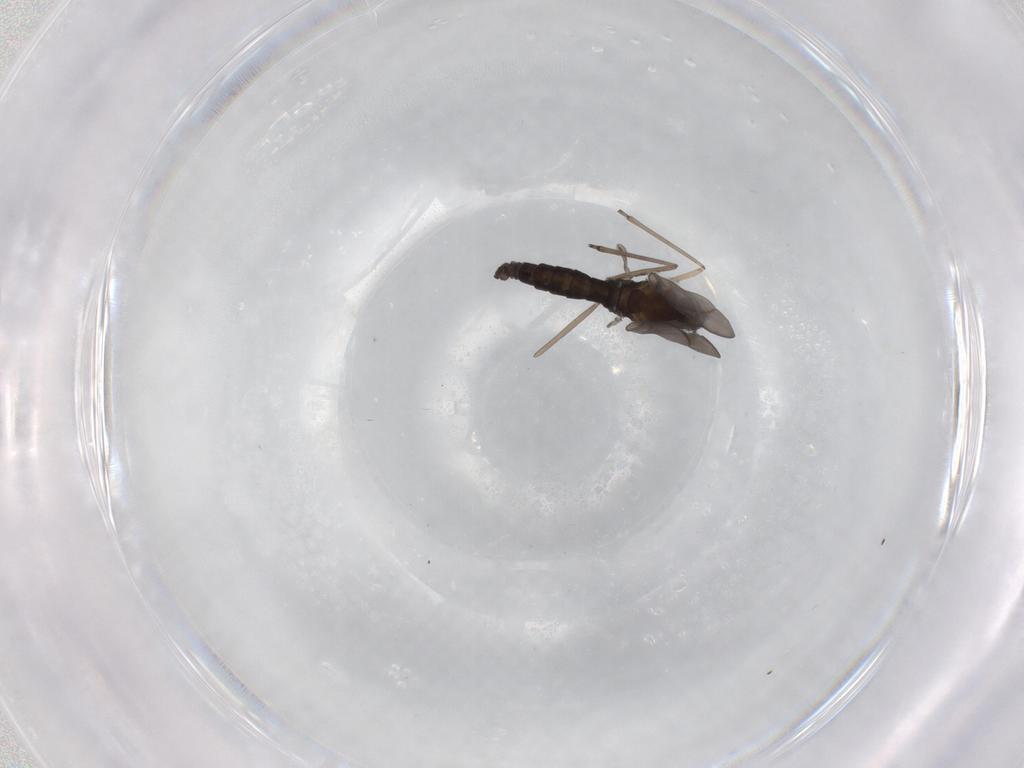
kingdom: Animalia
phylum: Arthropoda
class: Insecta
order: Diptera
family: Cecidomyiidae
